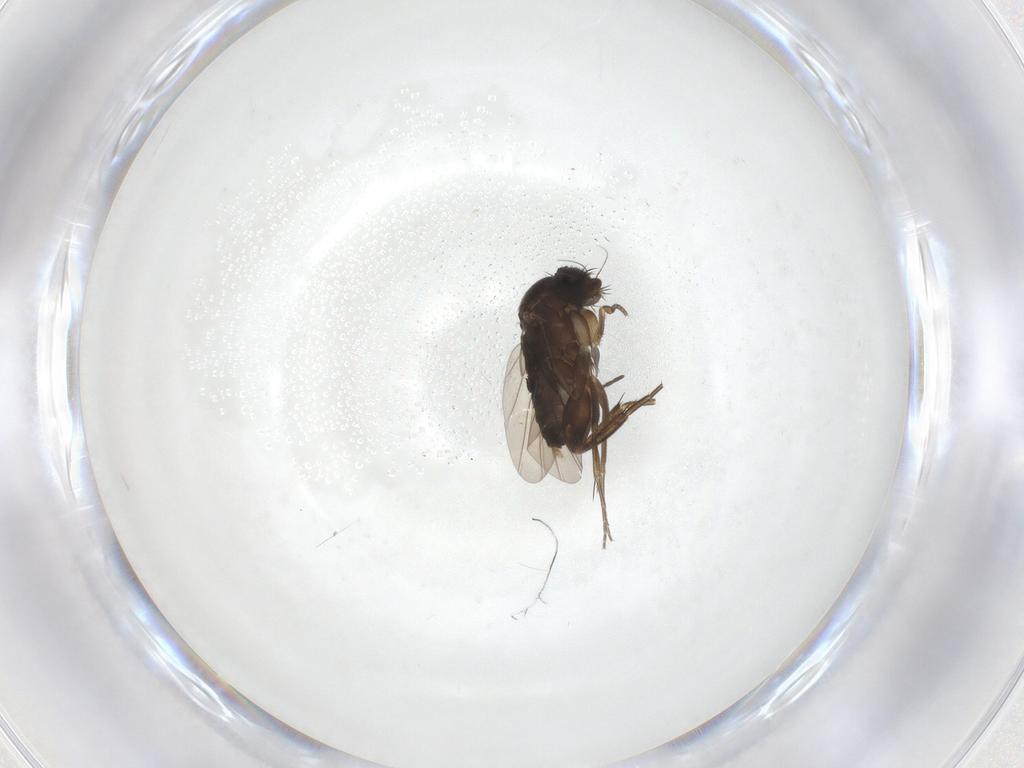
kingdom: Animalia
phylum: Arthropoda
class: Insecta
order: Diptera
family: Phoridae
